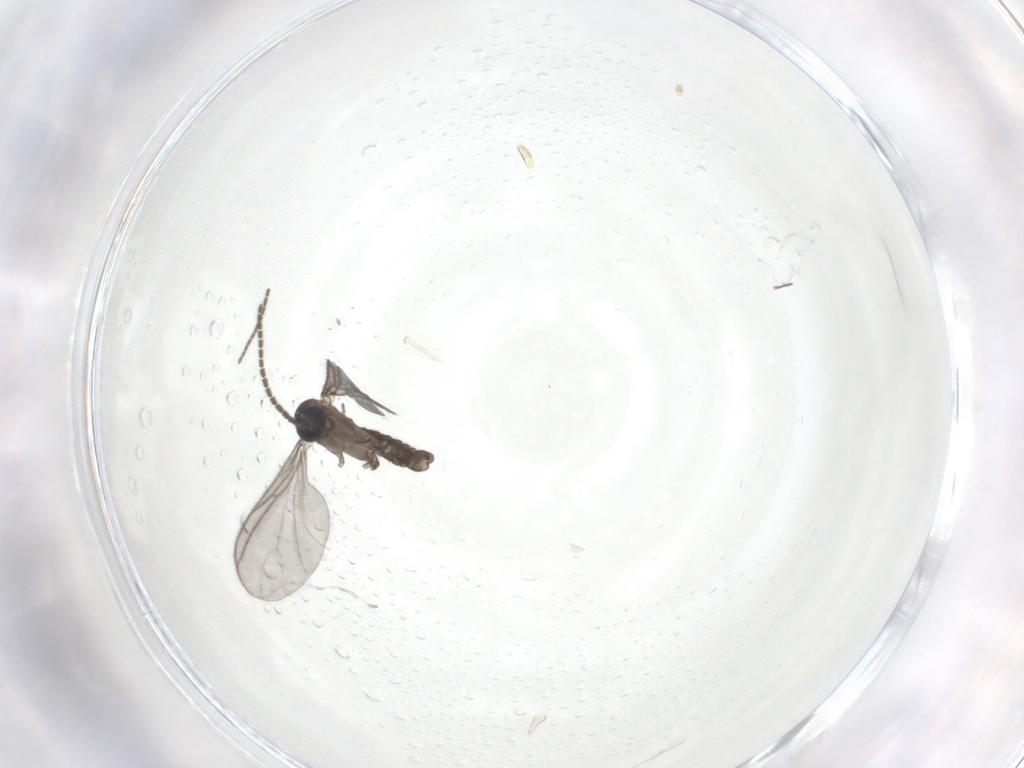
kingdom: Animalia
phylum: Arthropoda
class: Insecta
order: Diptera
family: Sciaridae
